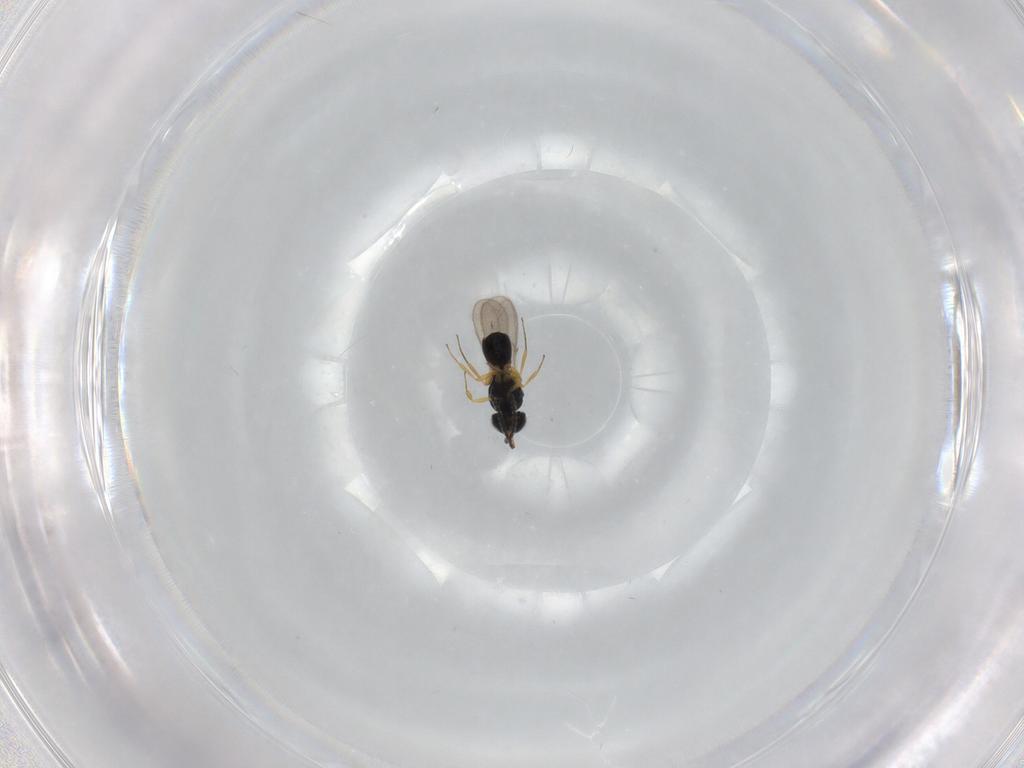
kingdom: Animalia
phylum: Arthropoda
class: Insecta
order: Hymenoptera
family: Scelionidae
